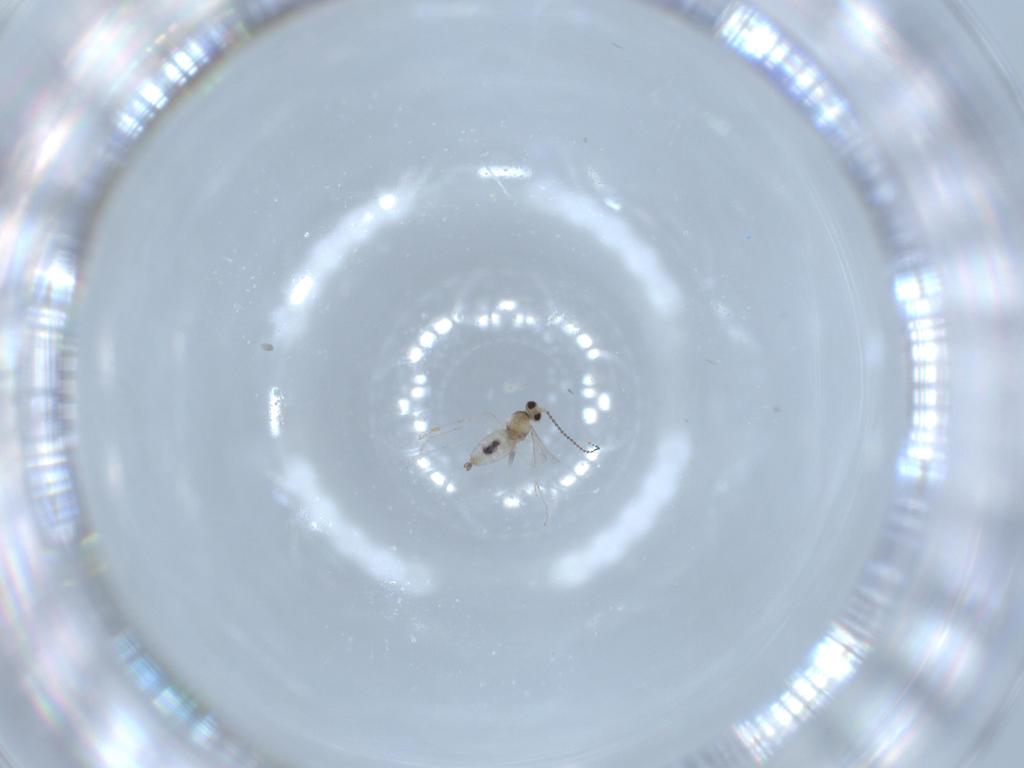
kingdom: Animalia
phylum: Arthropoda
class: Insecta
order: Diptera
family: Cecidomyiidae
